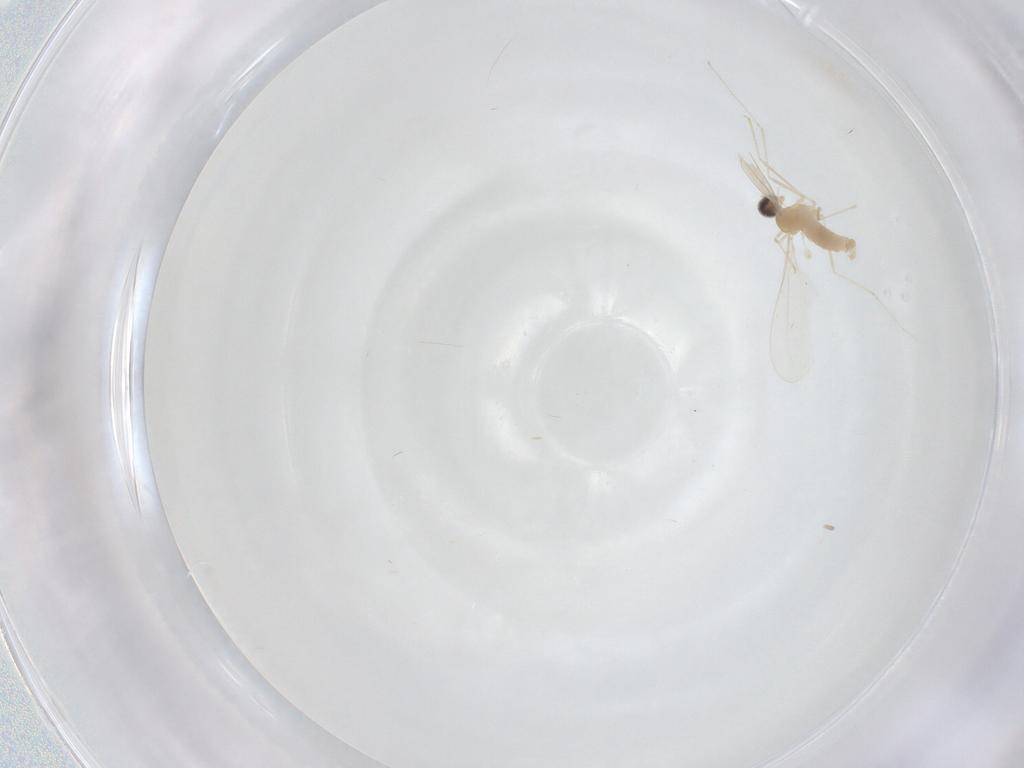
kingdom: Animalia
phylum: Arthropoda
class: Insecta
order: Diptera
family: Cecidomyiidae
